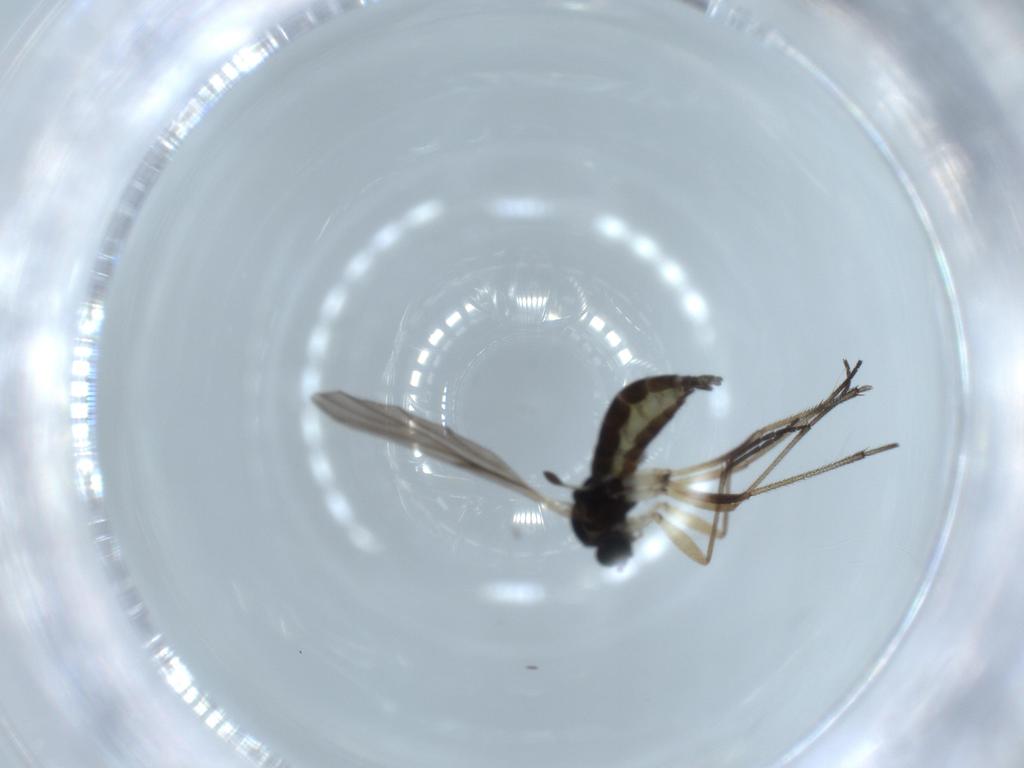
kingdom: Animalia
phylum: Arthropoda
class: Insecta
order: Diptera
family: Sciaridae
